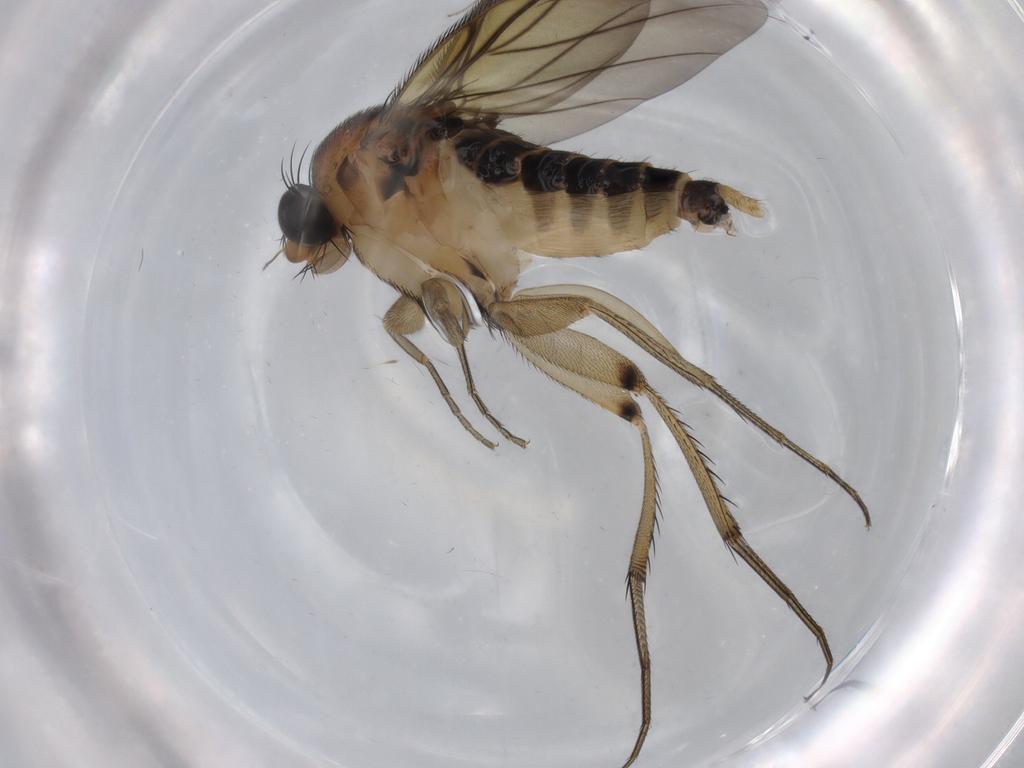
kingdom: Animalia
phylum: Arthropoda
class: Insecta
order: Diptera
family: Phoridae
